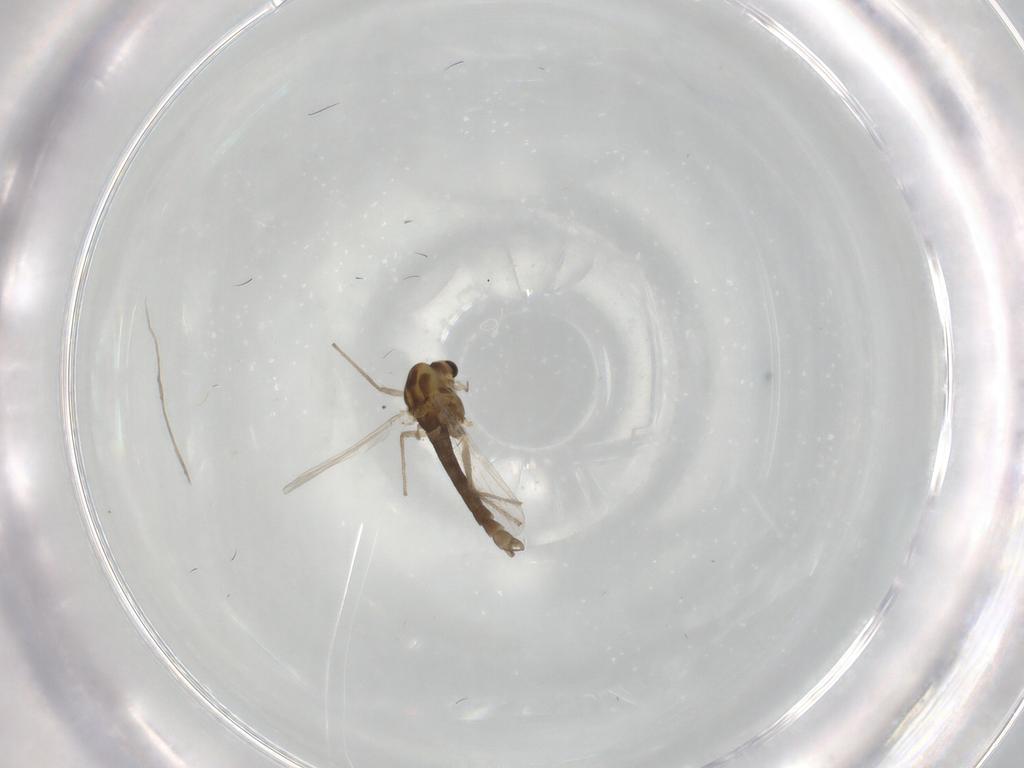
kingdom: Animalia
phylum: Arthropoda
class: Insecta
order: Diptera
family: Chironomidae
